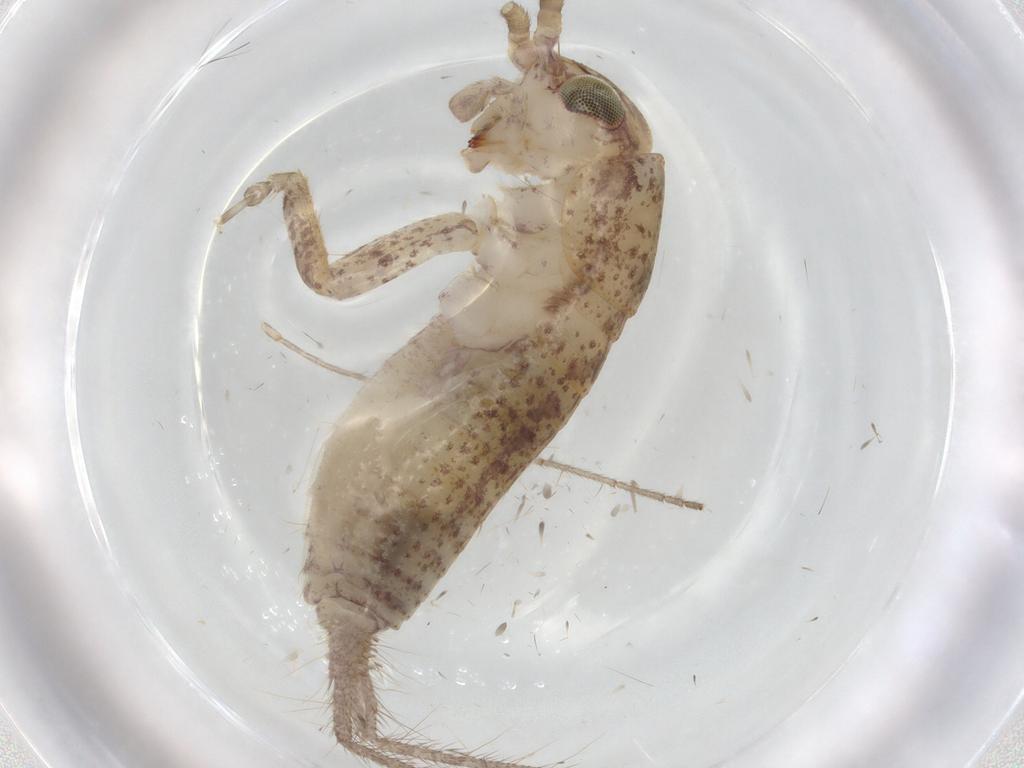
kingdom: Animalia
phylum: Arthropoda
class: Insecta
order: Orthoptera
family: Gryllidae
